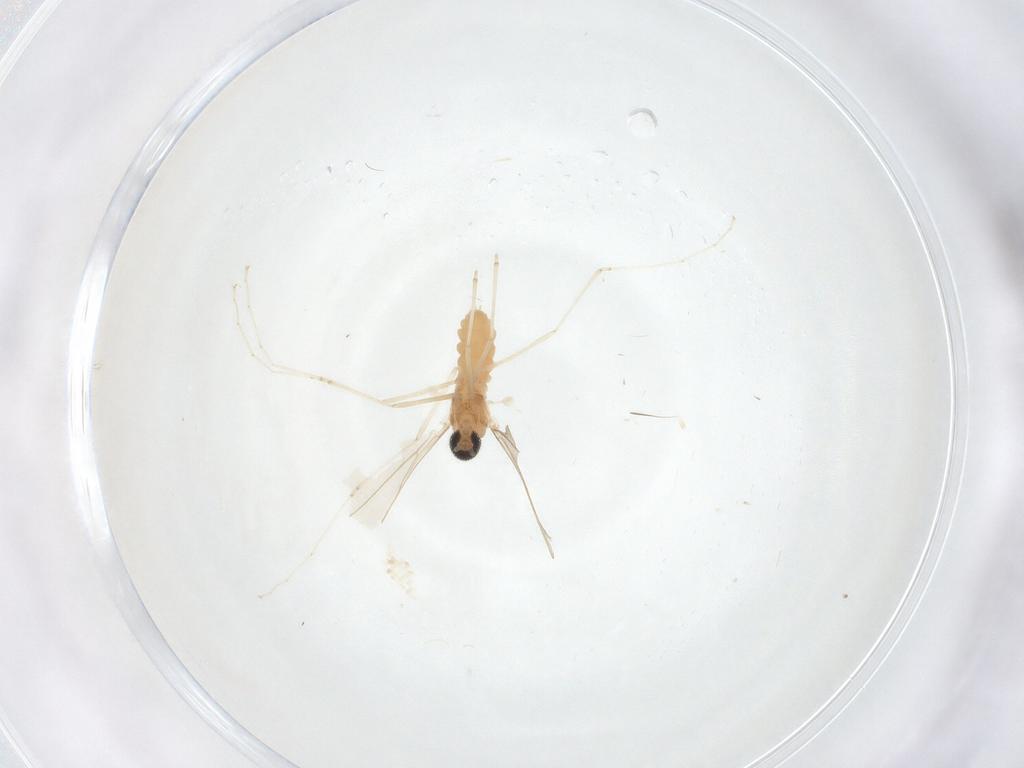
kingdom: Animalia
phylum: Arthropoda
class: Insecta
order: Diptera
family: Cecidomyiidae
